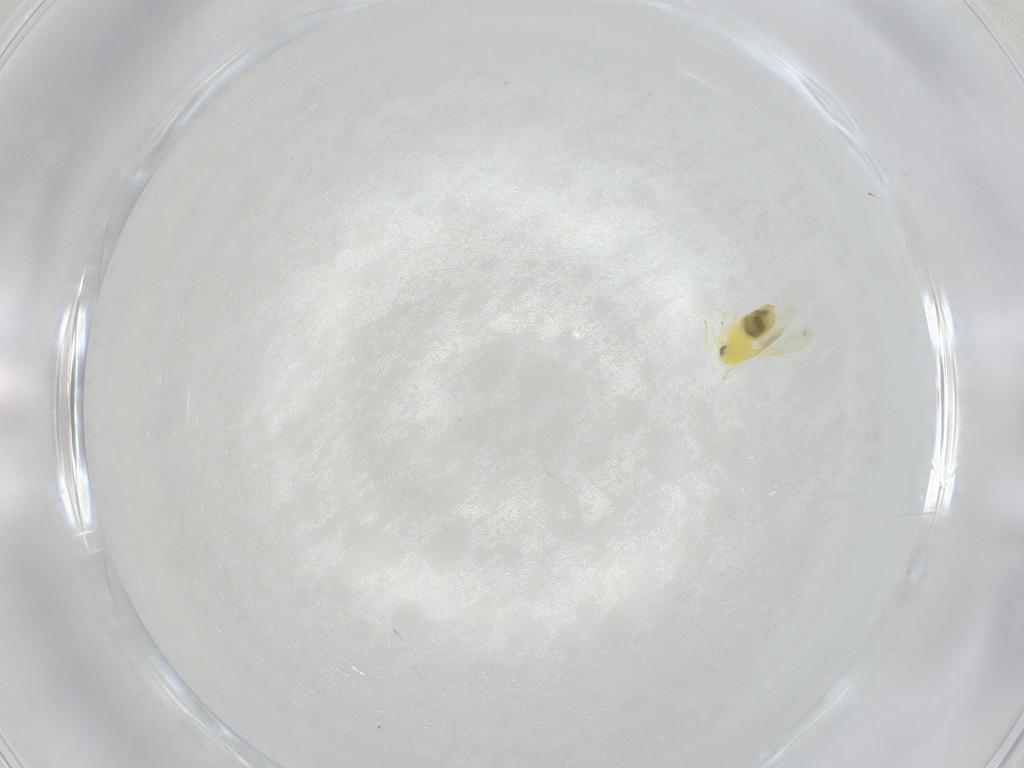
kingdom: Animalia
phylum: Arthropoda
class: Insecta
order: Hemiptera
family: Aleyrodidae
